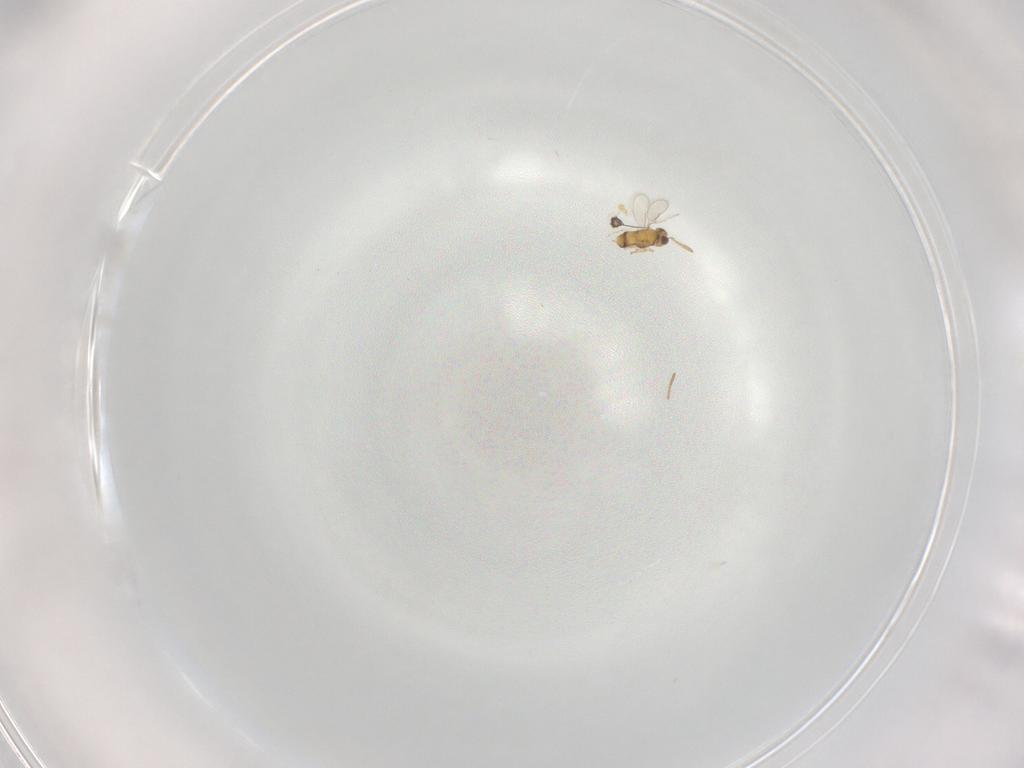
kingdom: Animalia
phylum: Arthropoda
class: Insecta
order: Hymenoptera
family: Aphelinidae
